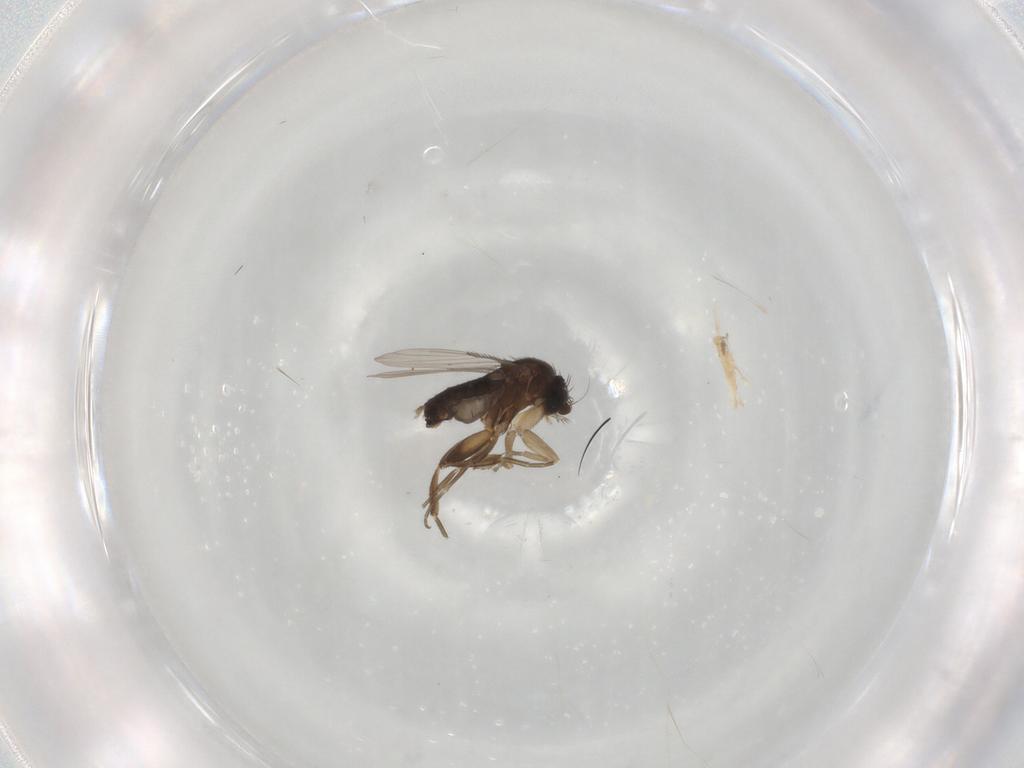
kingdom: Animalia
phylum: Arthropoda
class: Insecta
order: Diptera
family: Phoridae
